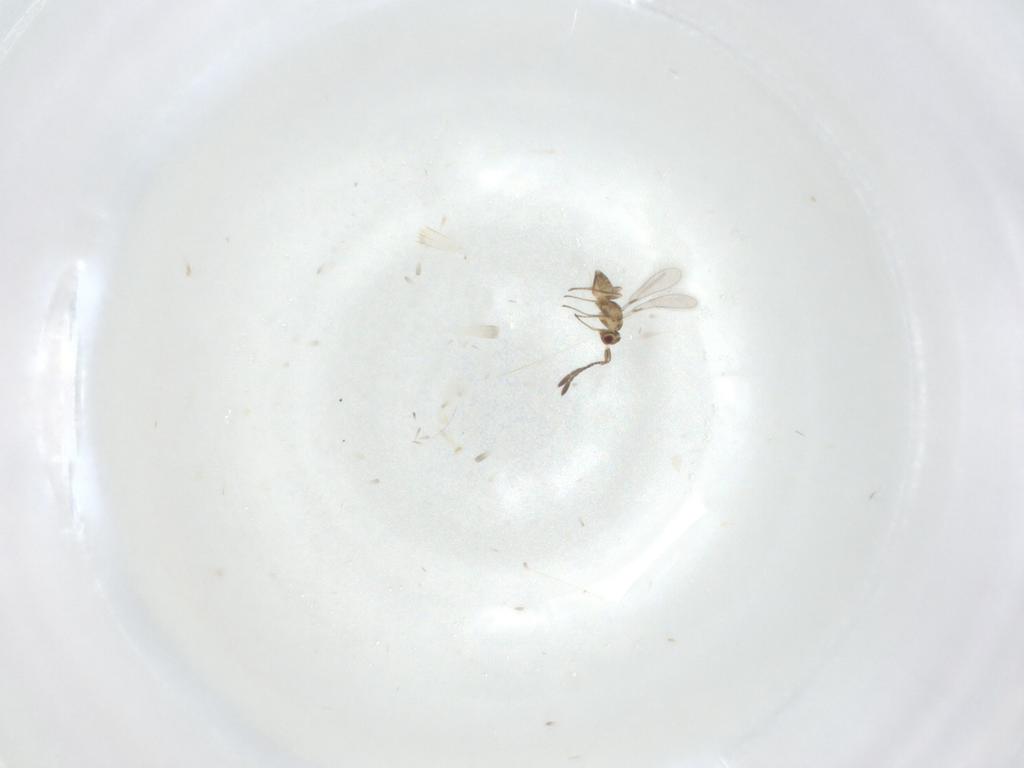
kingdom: Animalia
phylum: Arthropoda
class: Insecta
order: Hymenoptera
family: Mymaridae
